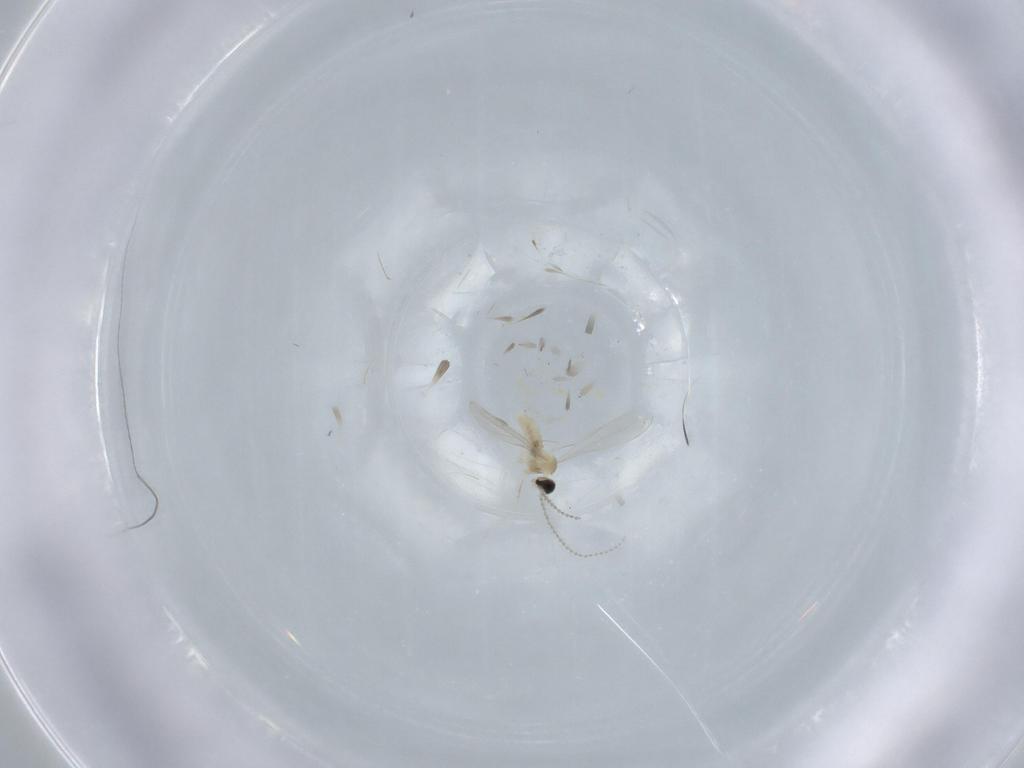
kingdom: Animalia
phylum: Arthropoda
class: Insecta
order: Diptera
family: Cecidomyiidae
